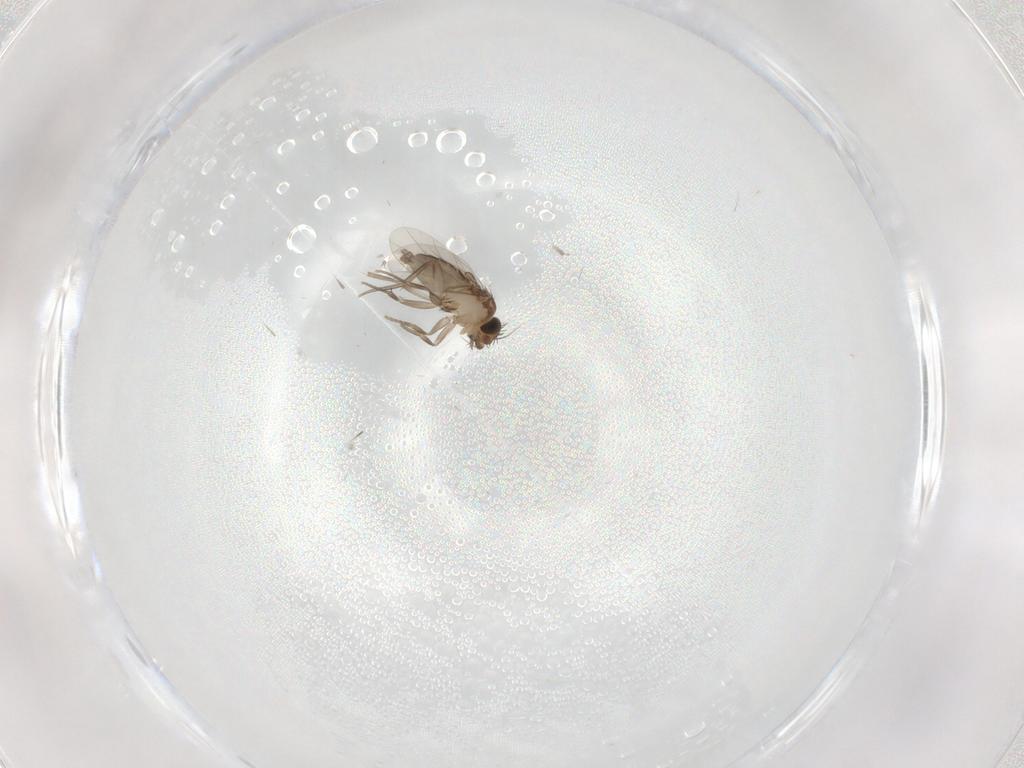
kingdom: Animalia
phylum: Arthropoda
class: Insecta
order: Diptera
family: Phoridae
